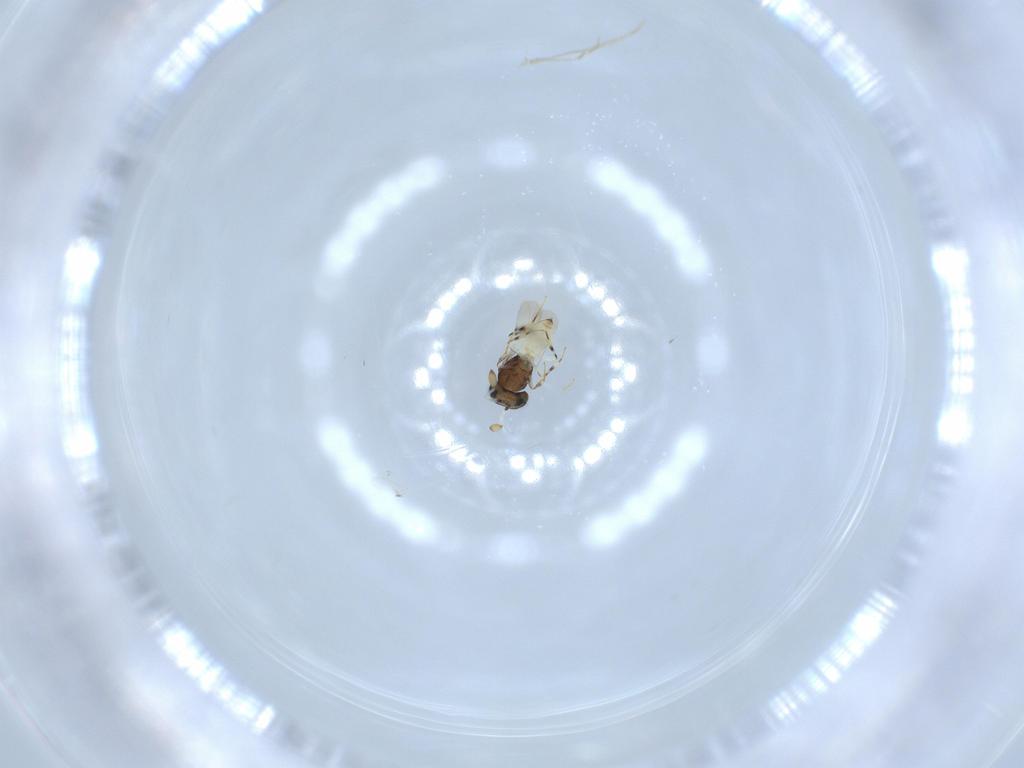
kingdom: Animalia
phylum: Arthropoda
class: Insecta
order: Hymenoptera
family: Scelionidae
